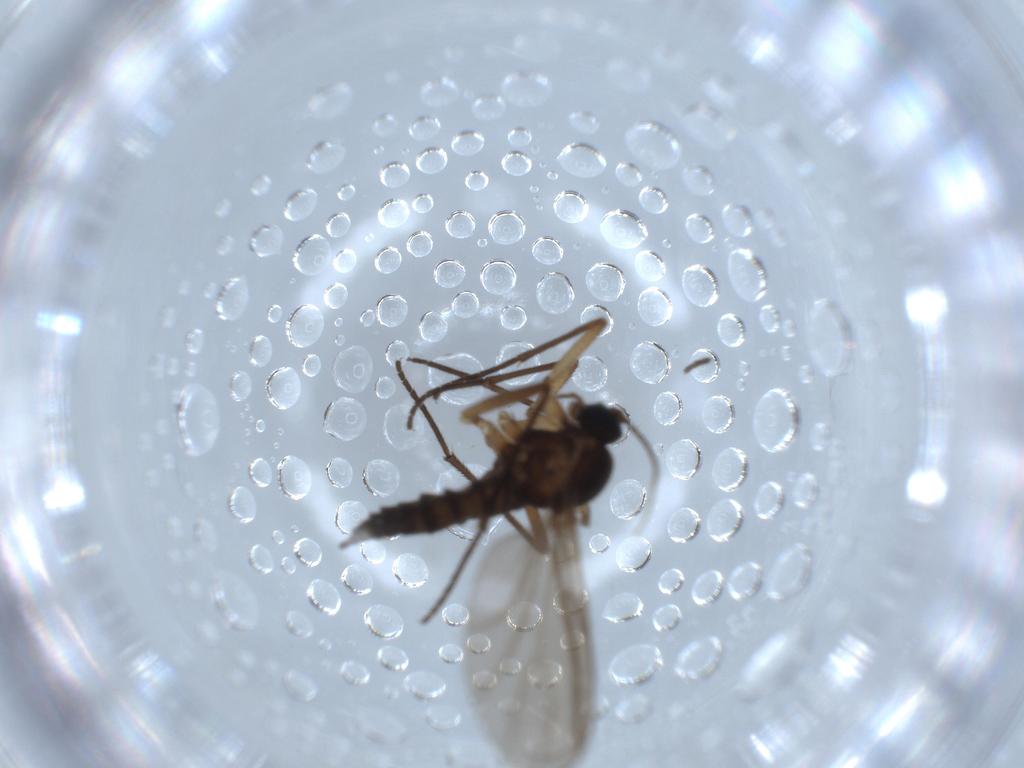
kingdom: Animalia
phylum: Arthropoda
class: Insecta
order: Diptera
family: Sciaridae
